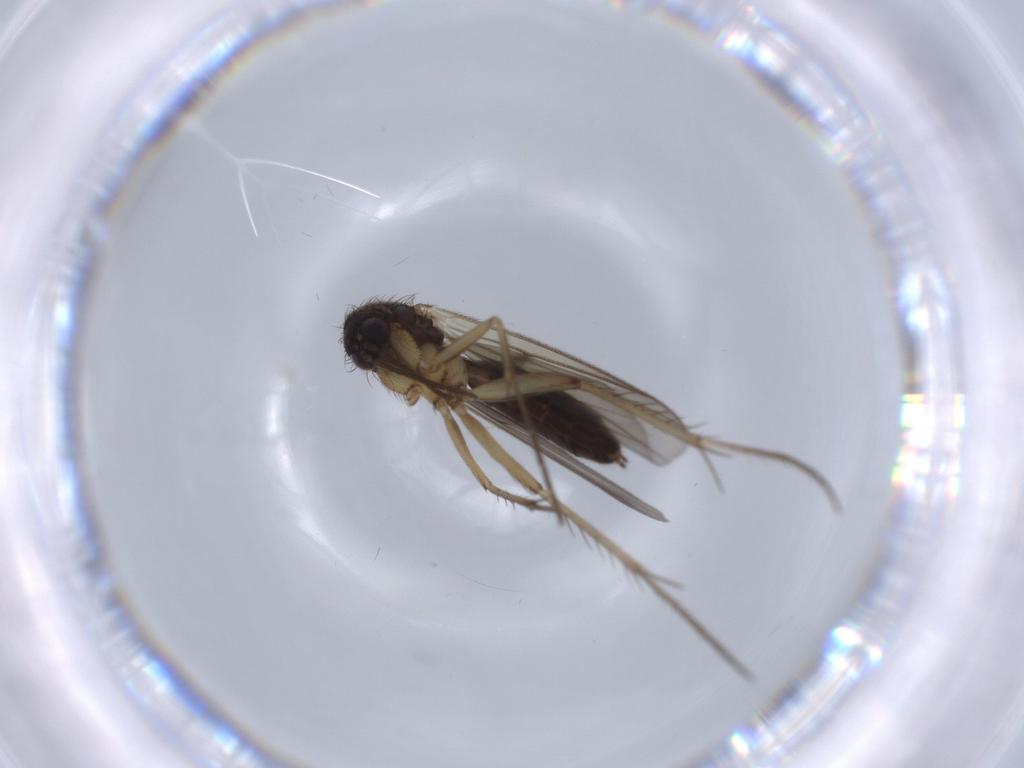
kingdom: Animalia
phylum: Arthropoda
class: Insecta
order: Diptera
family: Mycetophilidae
